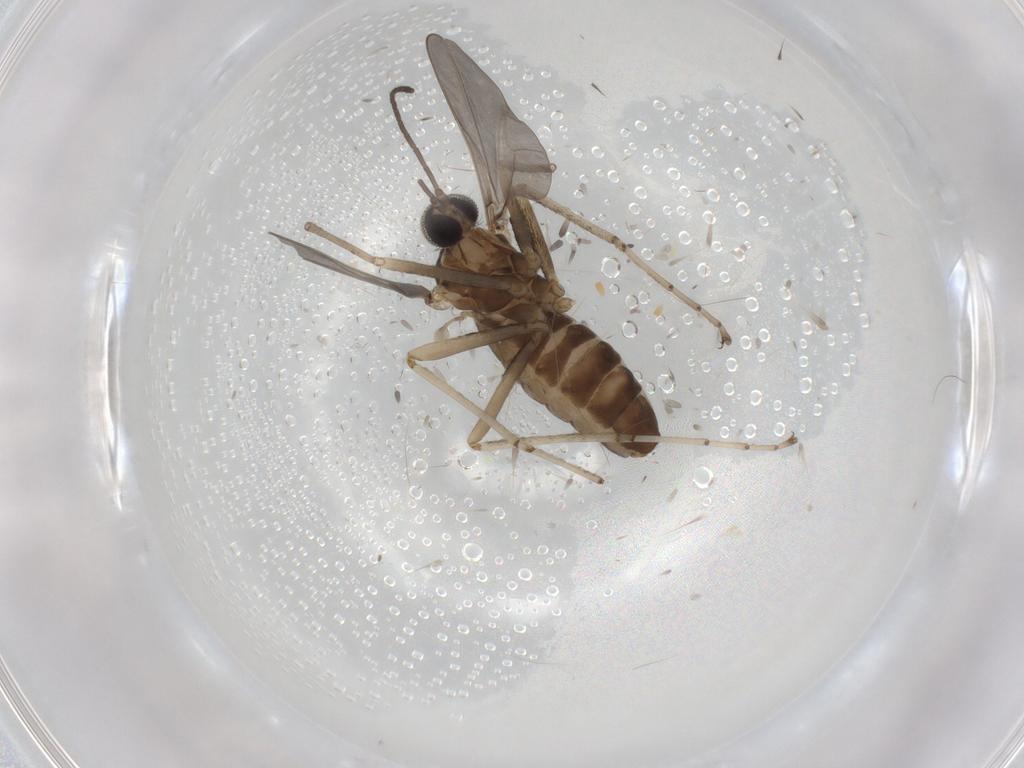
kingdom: Animalia
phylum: Arthropoda
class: Insecta
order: Diptera
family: Cecidomyiidae
